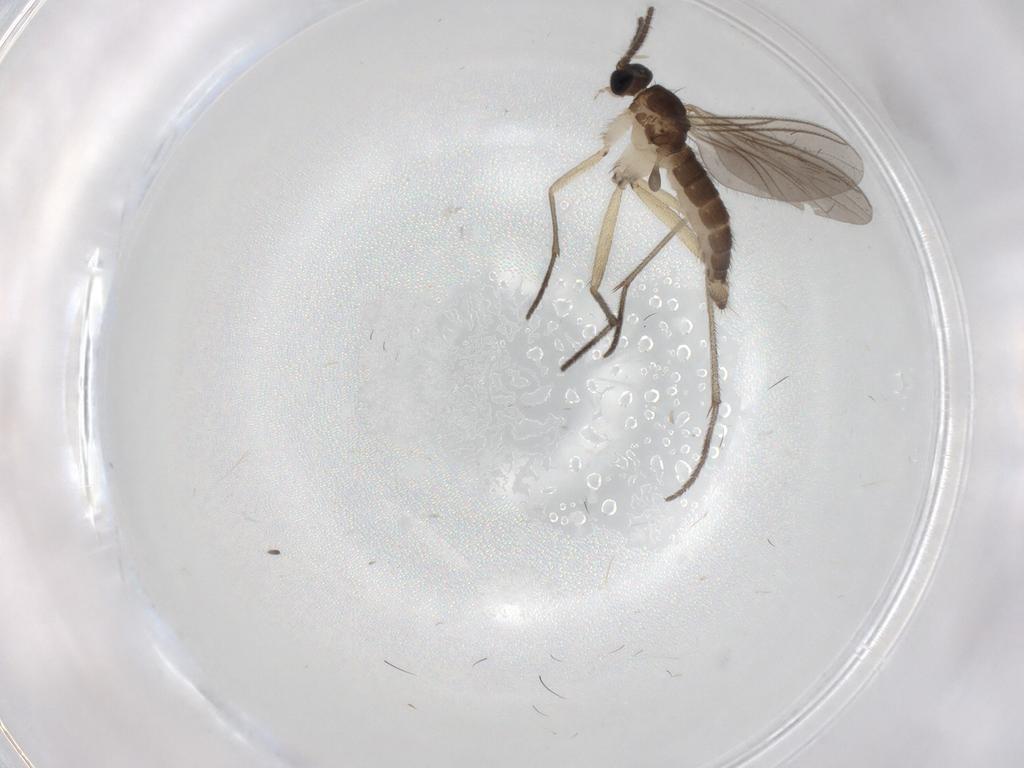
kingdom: Animalia
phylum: Arthropoda
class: Insecta
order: Diptera
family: Sciaridae
